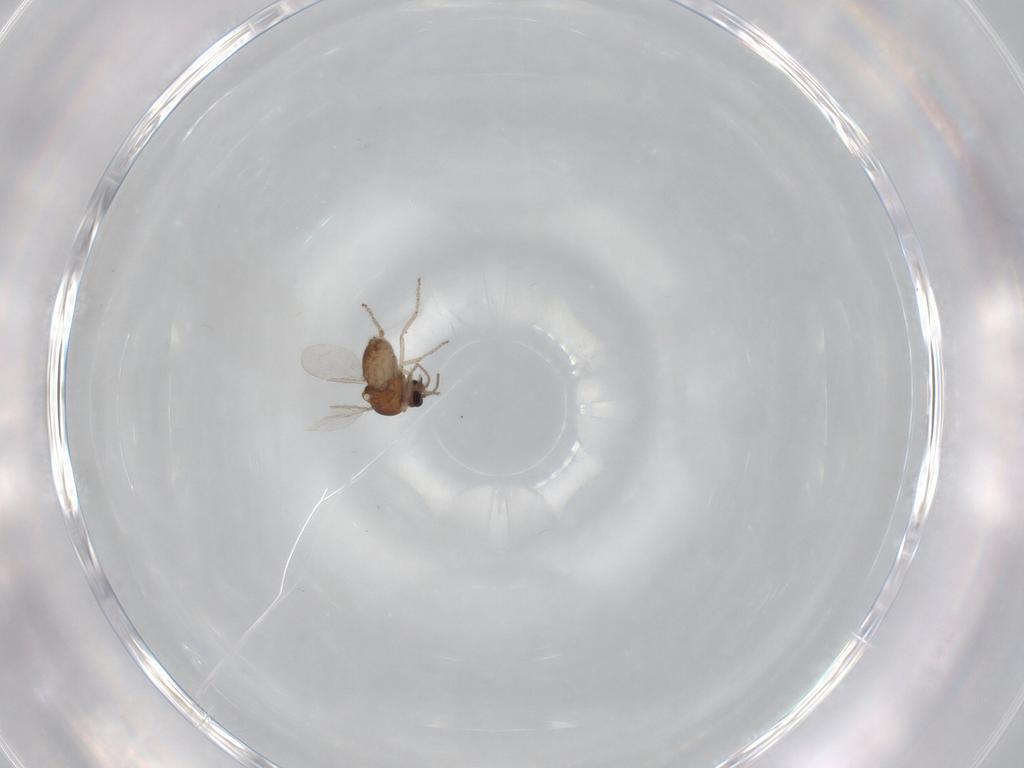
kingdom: Animalia
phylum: Arthropoda
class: Insecta
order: Diptera
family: Ceratopogonidae
